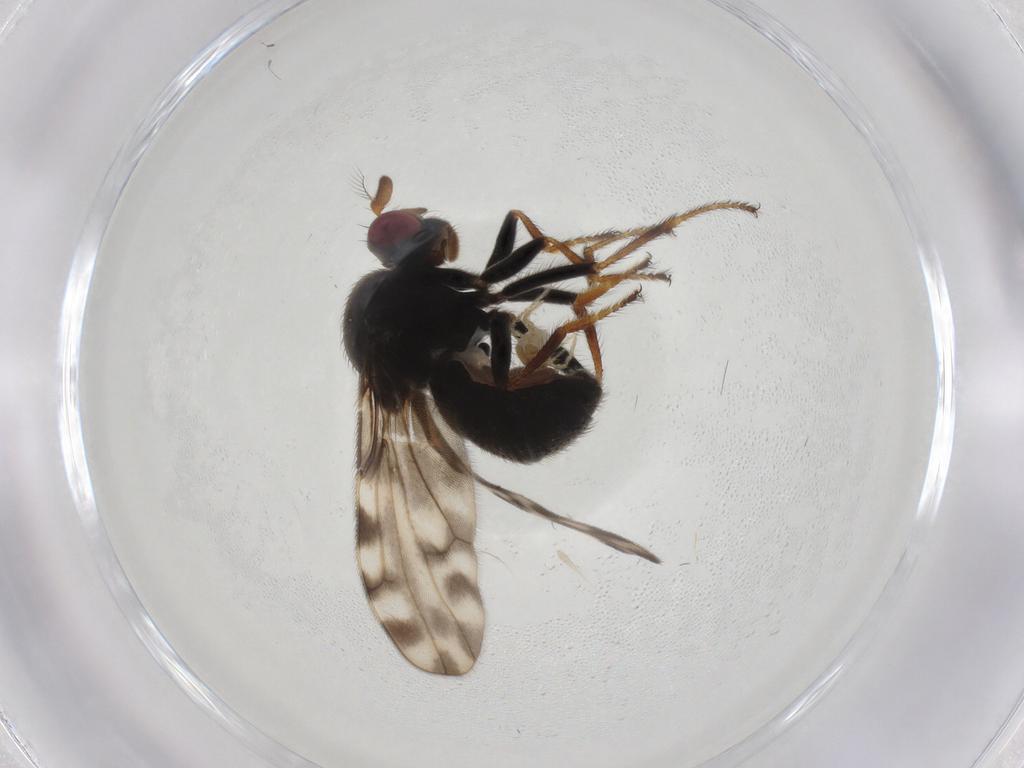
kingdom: Animalia
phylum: Arthropoda
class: Insecta
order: Diptera
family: Ephydridae
